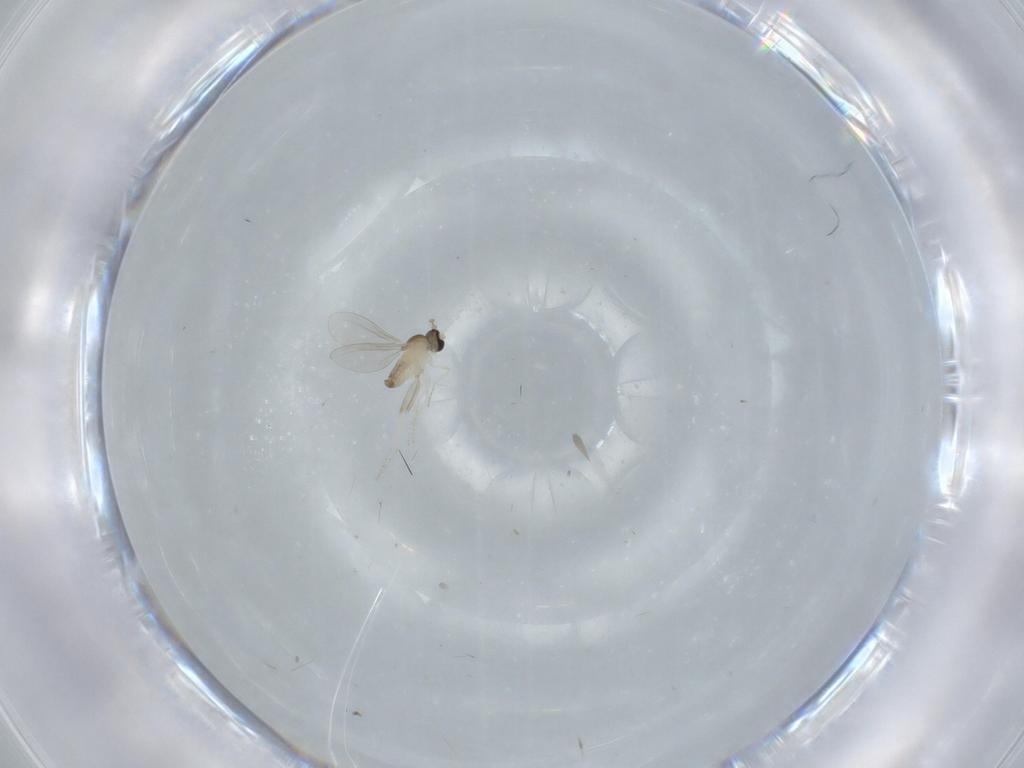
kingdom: Animalia
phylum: Arthropoda
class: Insecta
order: Diptera
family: Cecidomyiidae
